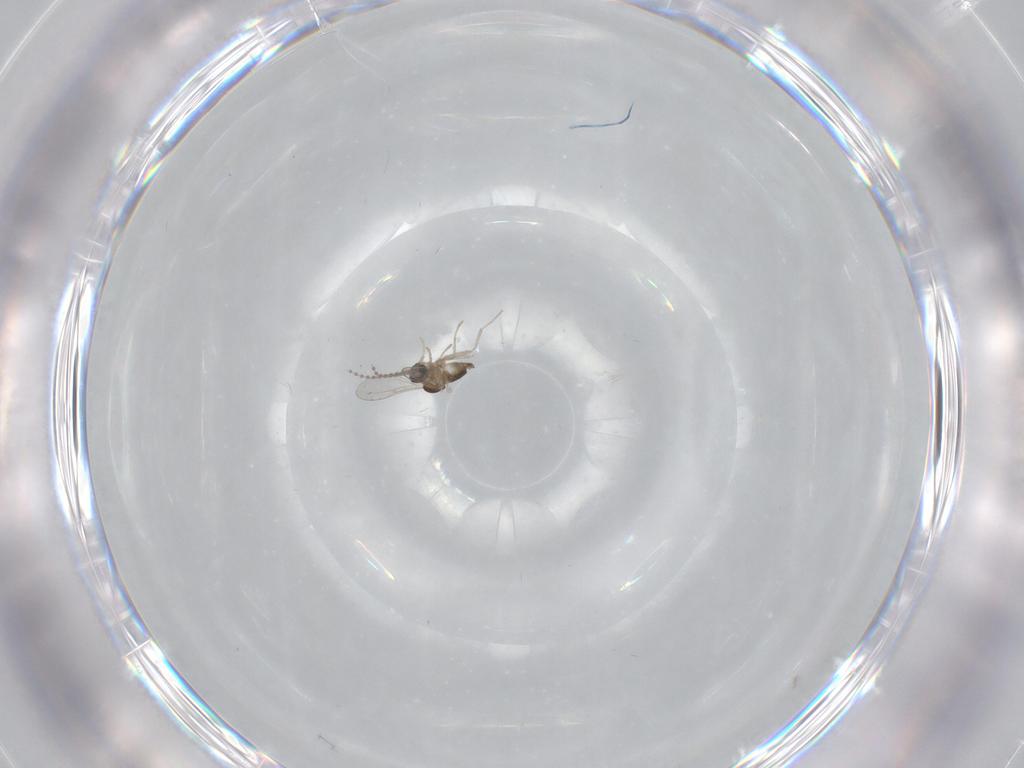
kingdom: Animalia
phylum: Arthropoda
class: Insecta
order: Diptera
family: Cecidomyiidae
